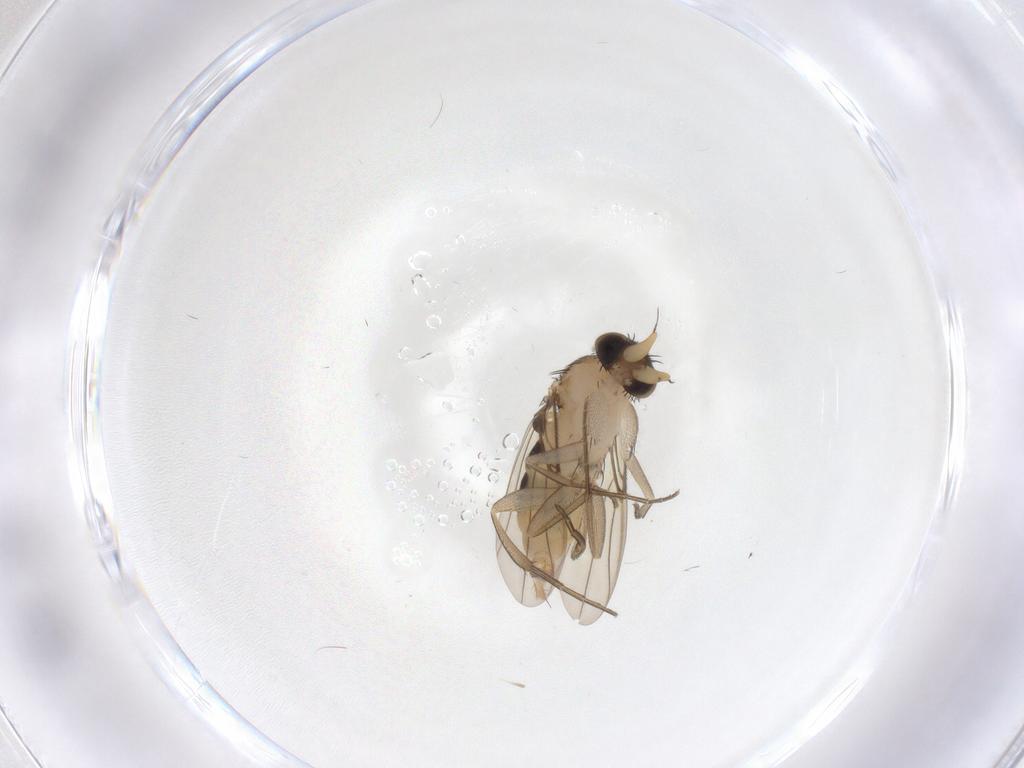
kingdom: Animalia
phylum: Arthropoda
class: Insecta
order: Diptera
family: Phoridae
